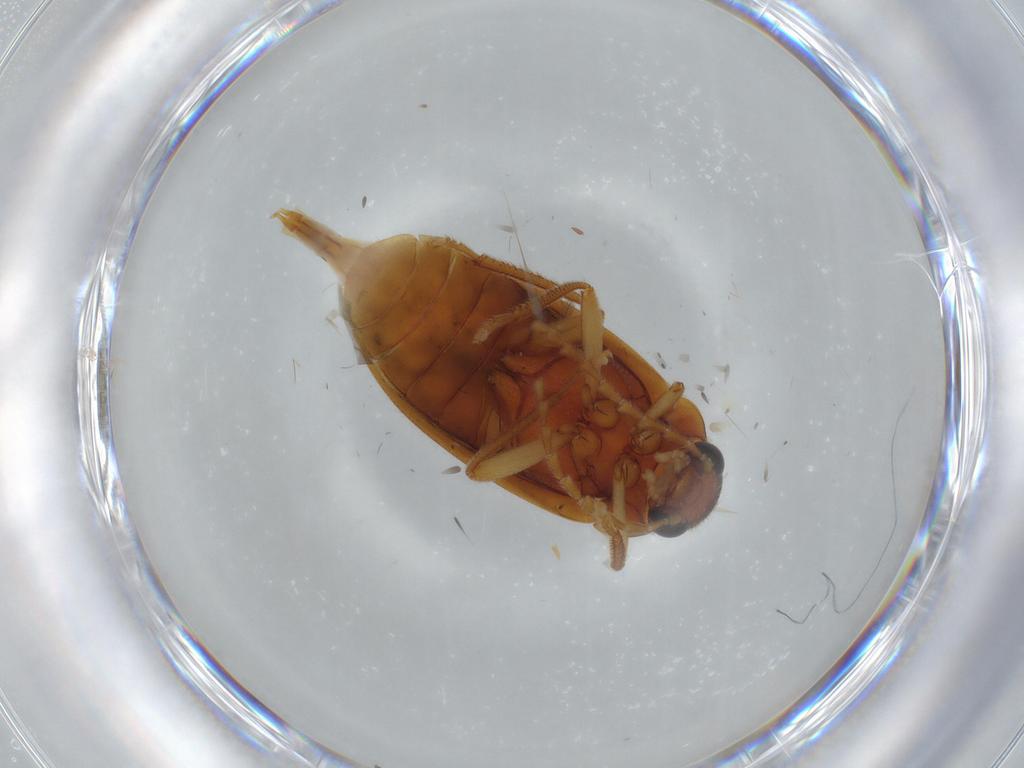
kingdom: Animalia
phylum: Arthropoda
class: Insecta
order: Coleoptera
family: Ptilodactylidae
